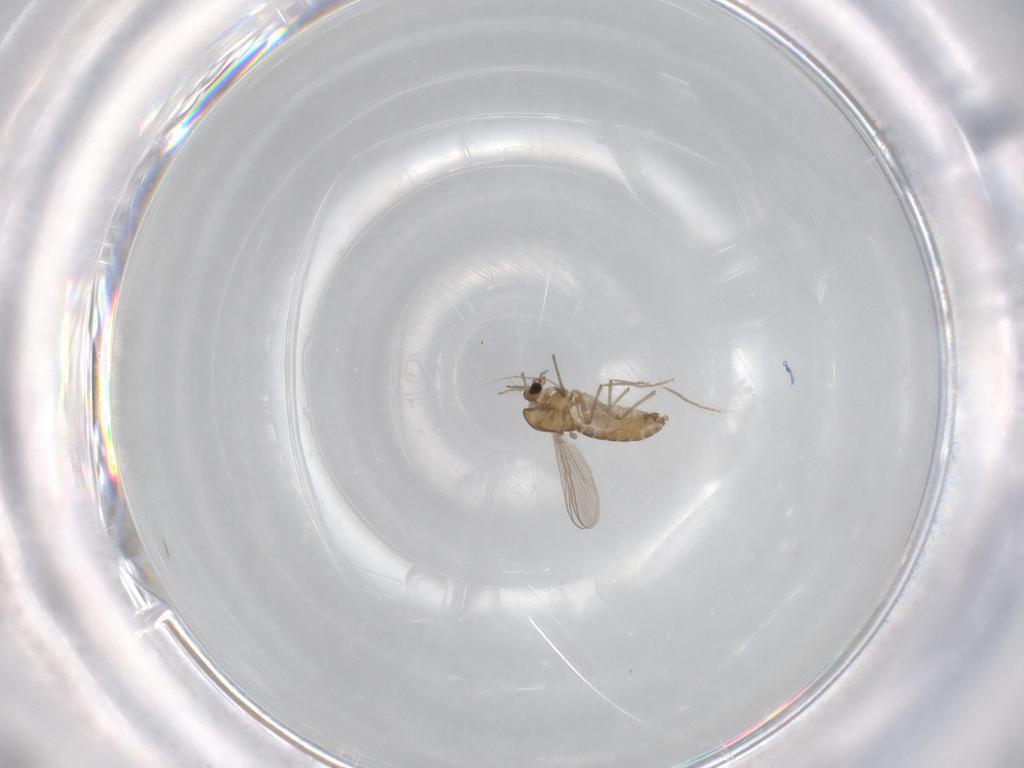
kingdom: Animalia
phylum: Arthropoda
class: Insecta
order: Diptera
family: Chironomidae
